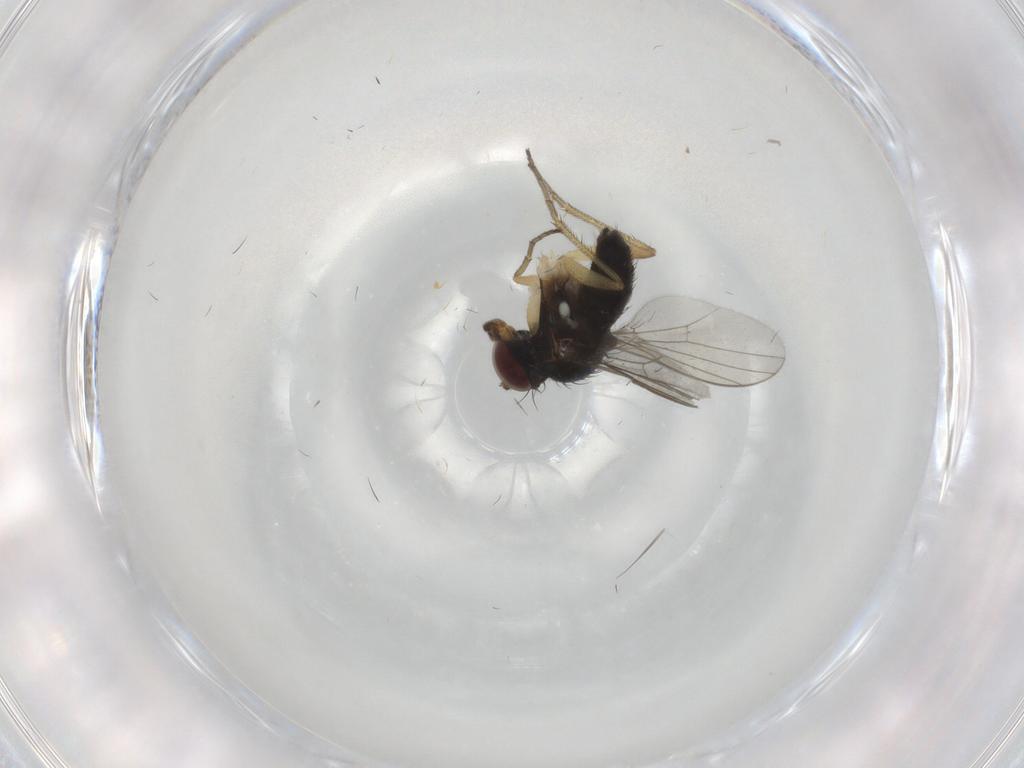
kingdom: Animalia
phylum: Arthropoda
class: Insecta
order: Diptera
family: Dolichopodidae
